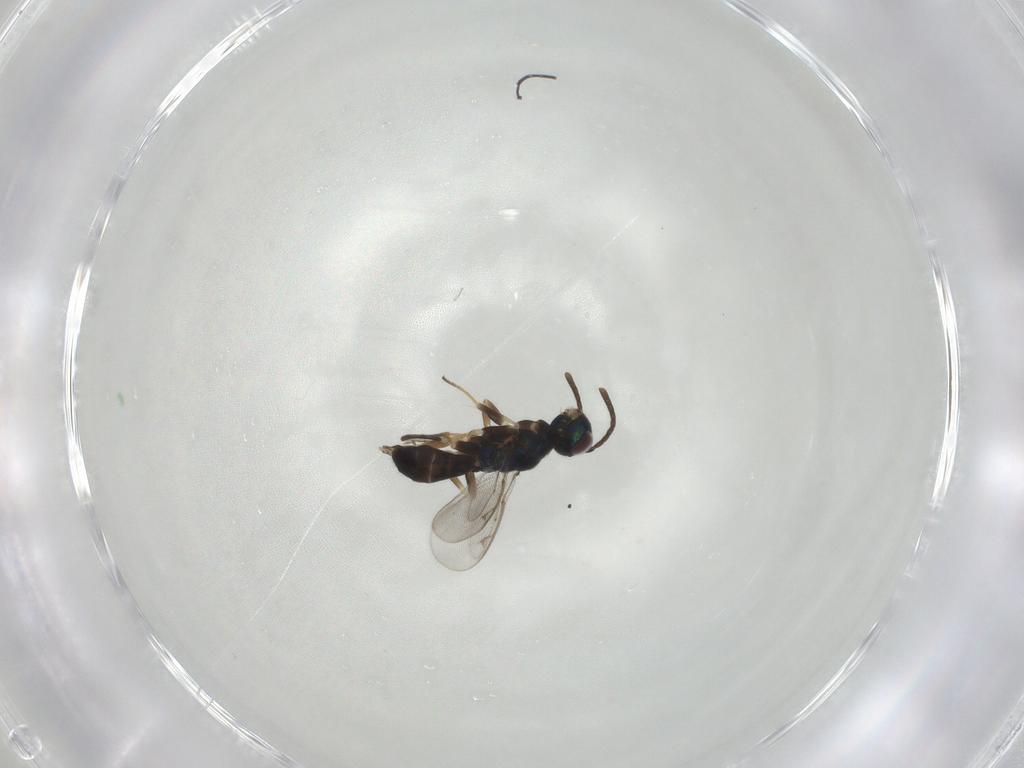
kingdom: Animalia
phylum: Arthropoda
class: Insecta
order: Hymenoptera
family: Eupelmidae
